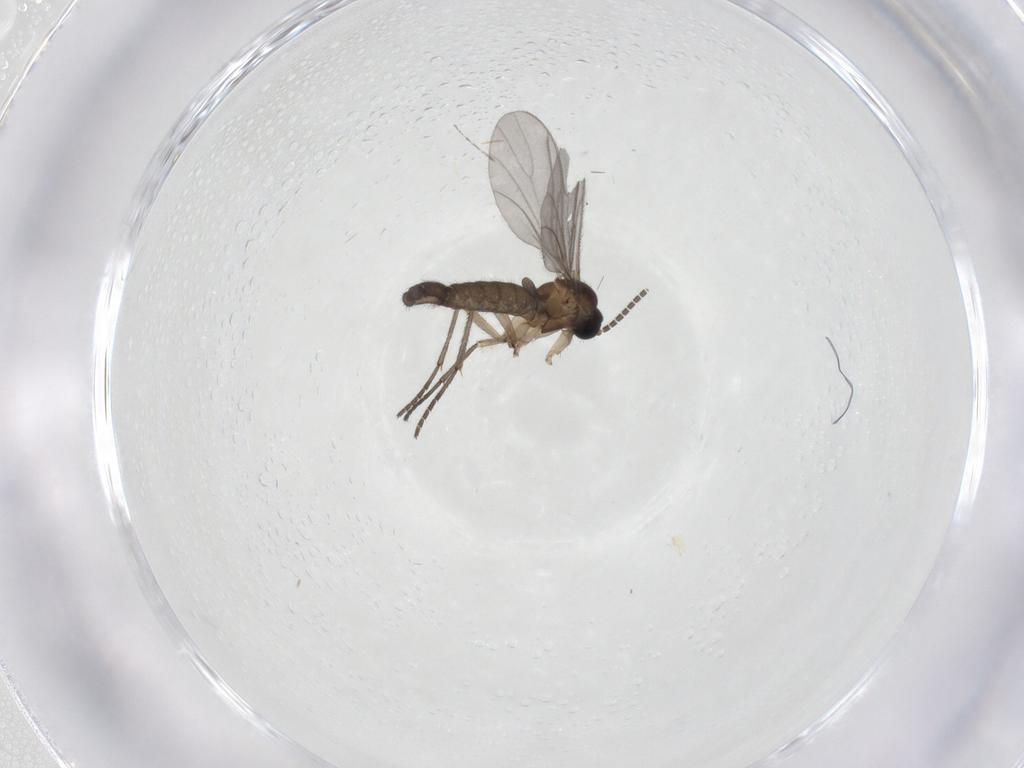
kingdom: Animalia
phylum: Arthropoda
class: Insecta
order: Diptera
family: Sciaridae
